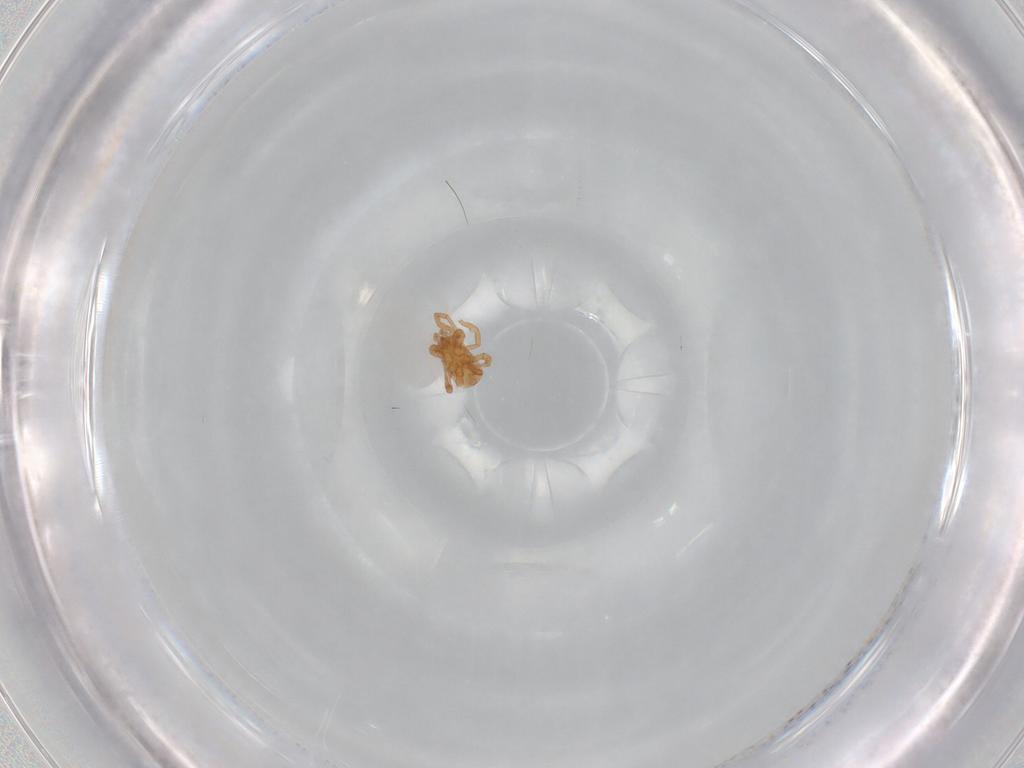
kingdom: Animalia
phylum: Arthropoda
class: Arachnida
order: Mesostigmata
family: Parasitidae
